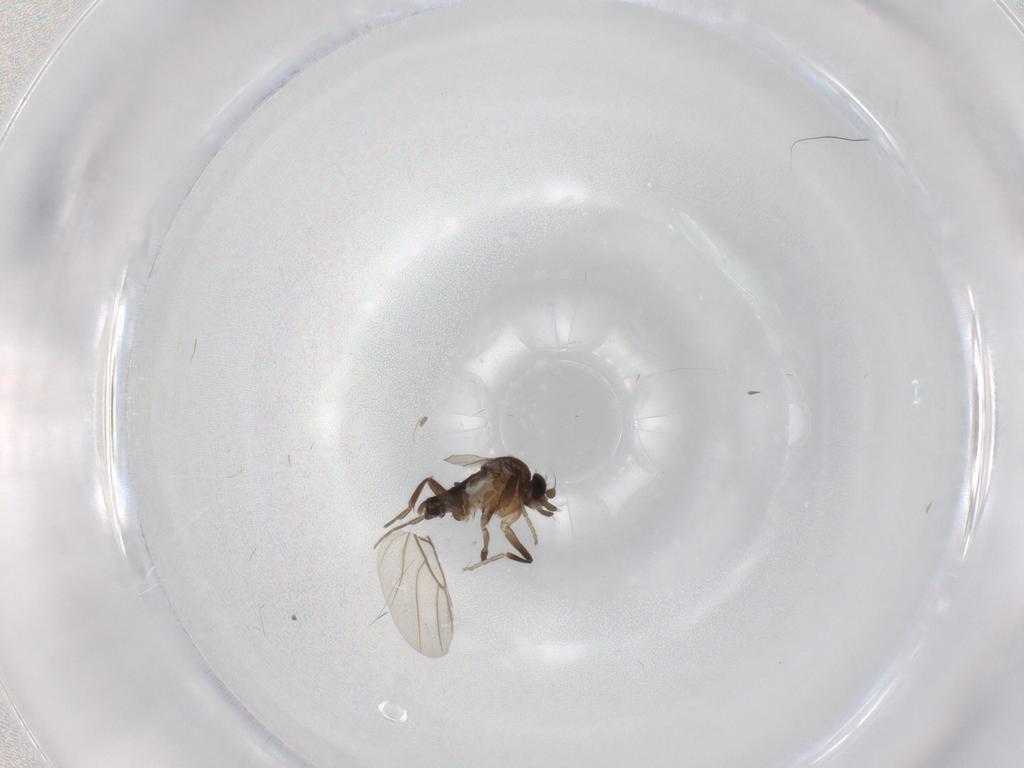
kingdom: Animalia
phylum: Arthropoda
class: Insecta
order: Diptera
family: Phoridae
